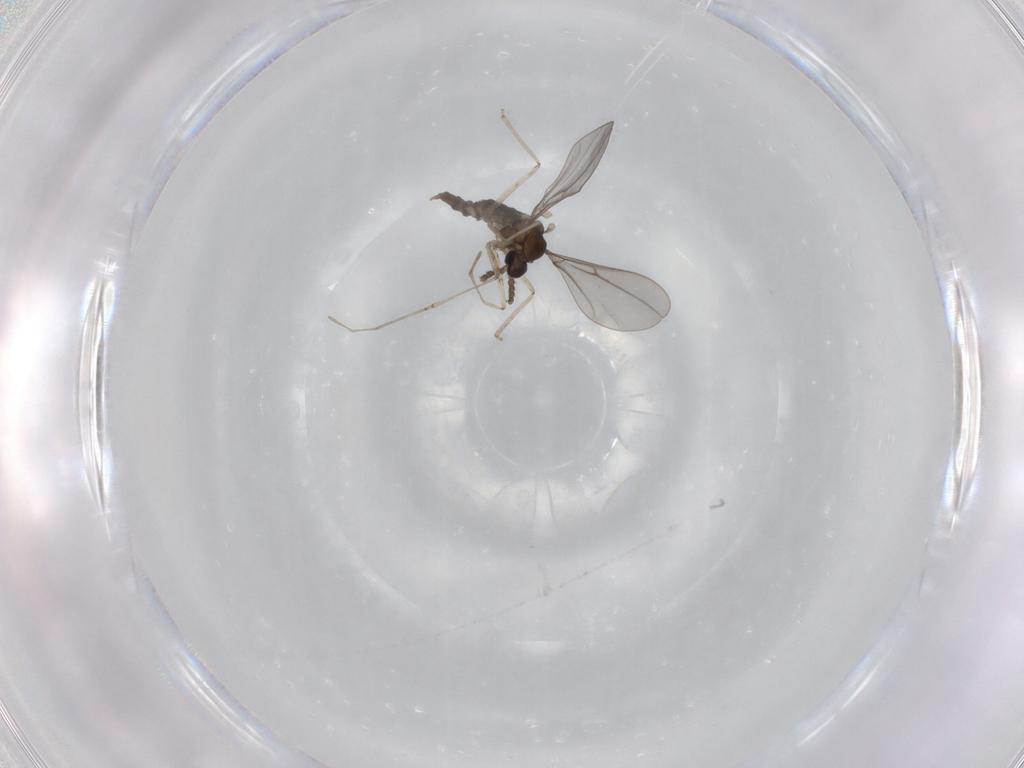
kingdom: Animalia
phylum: Arthropoda
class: Insecta
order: Diptera
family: Cecidomyiidae
